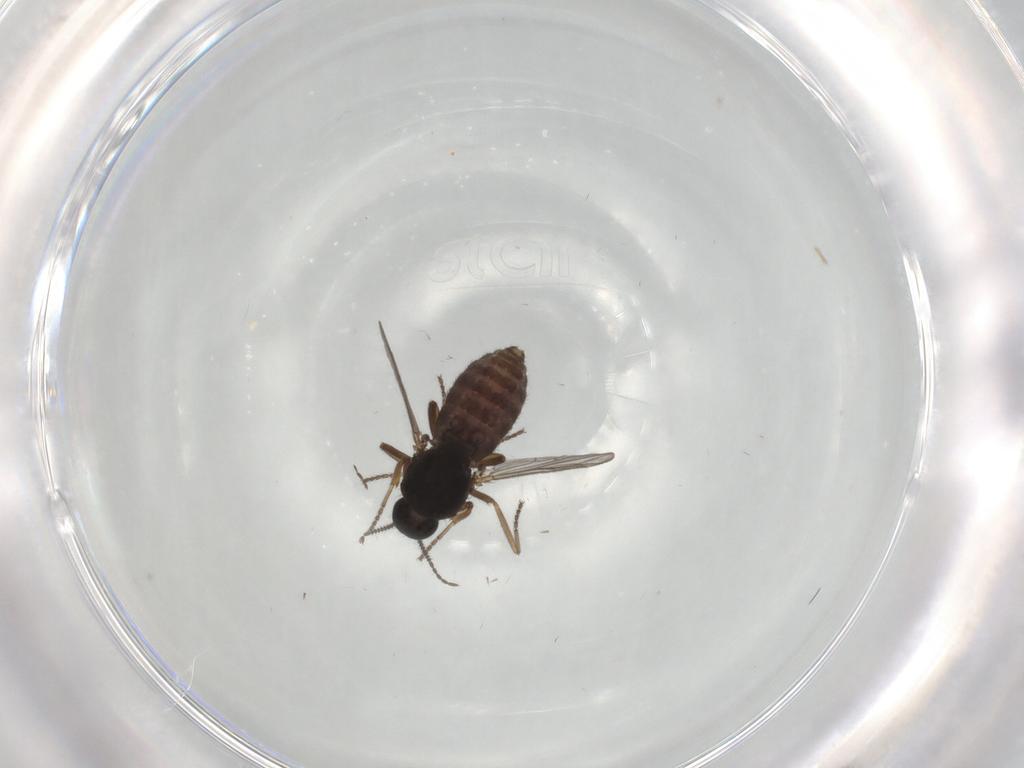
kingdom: Animalia
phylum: Arthropoda
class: Insecta
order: Diptera
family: Ceratopogonidae
